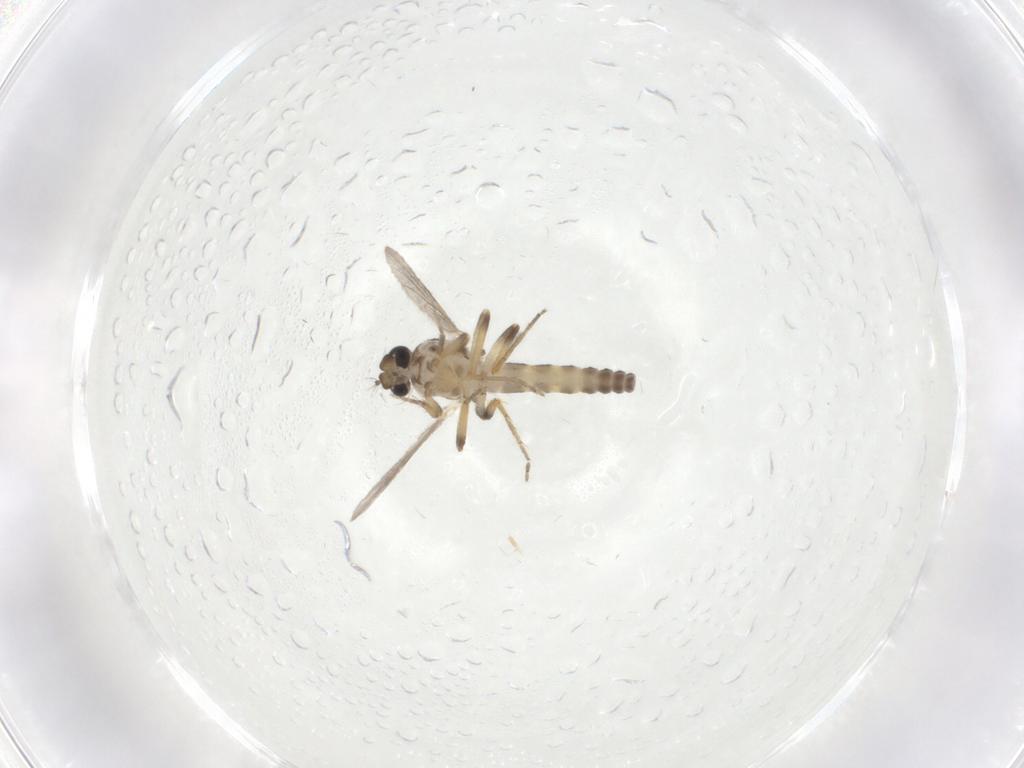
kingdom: Animalia
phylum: Arthropoda
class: Insecta
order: Diptera
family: Ceratopogonidae
